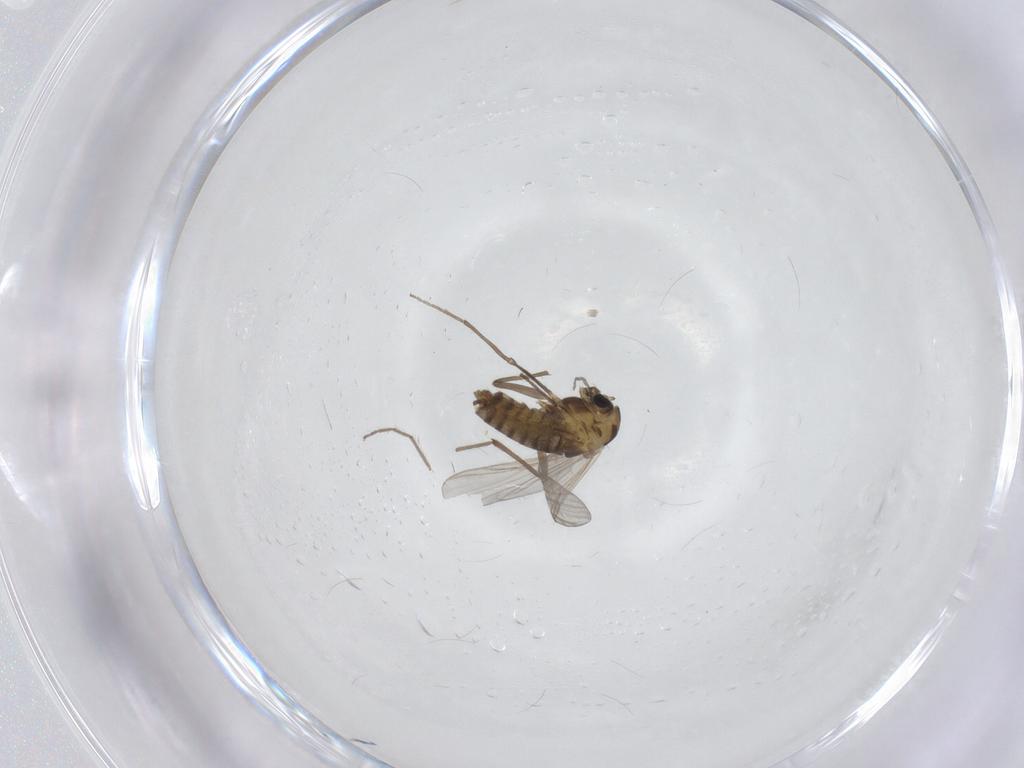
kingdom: Animalia
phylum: Arthropoda
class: Insecta
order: Diptera
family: Chironomidae
